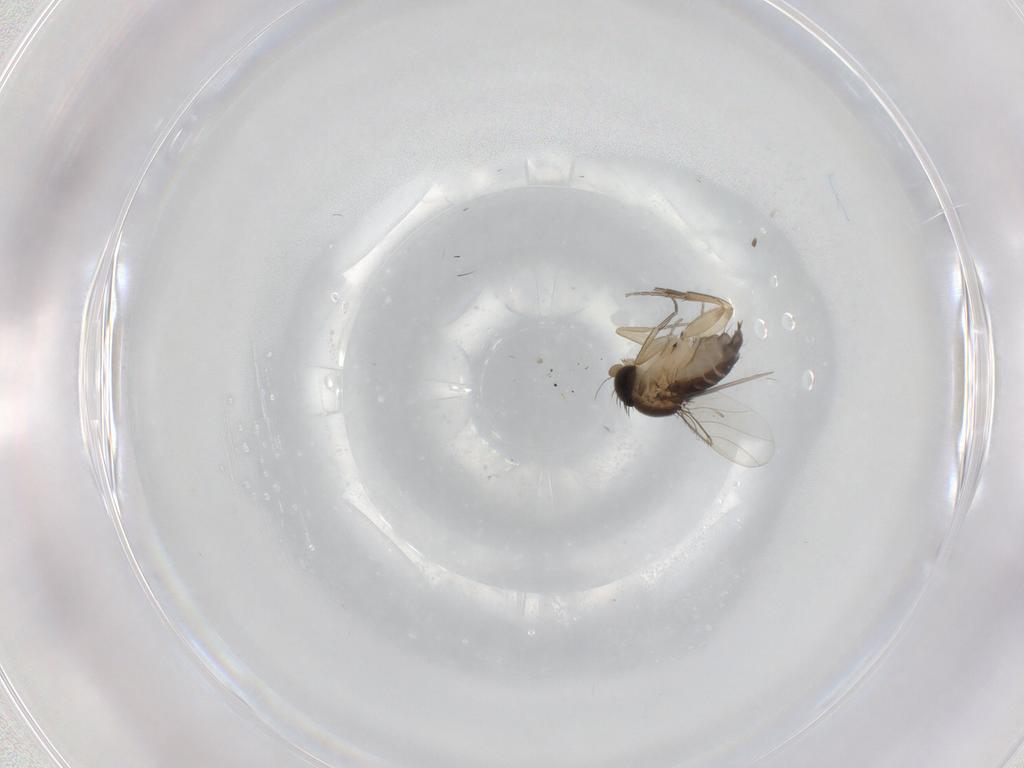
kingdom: Animalia
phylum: Arthropoda
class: Insecta
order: Diptera
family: Phoridae
